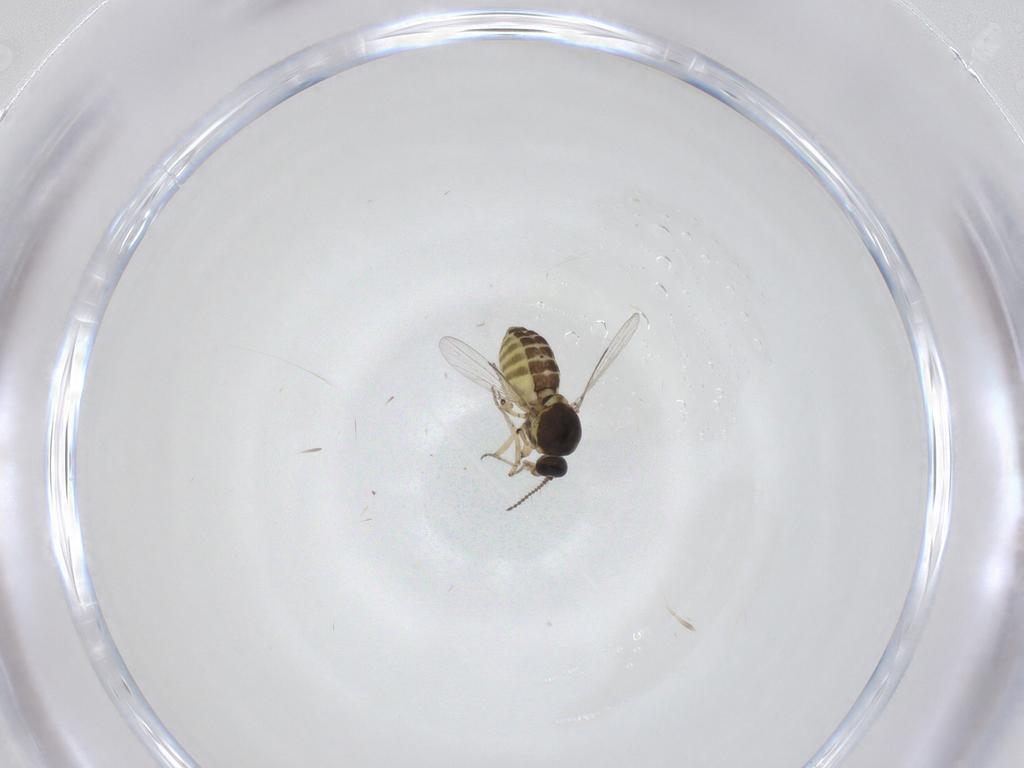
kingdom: Animalia
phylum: Arthropoda
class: Insecta
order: Diptera
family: Ceratopogonidae
